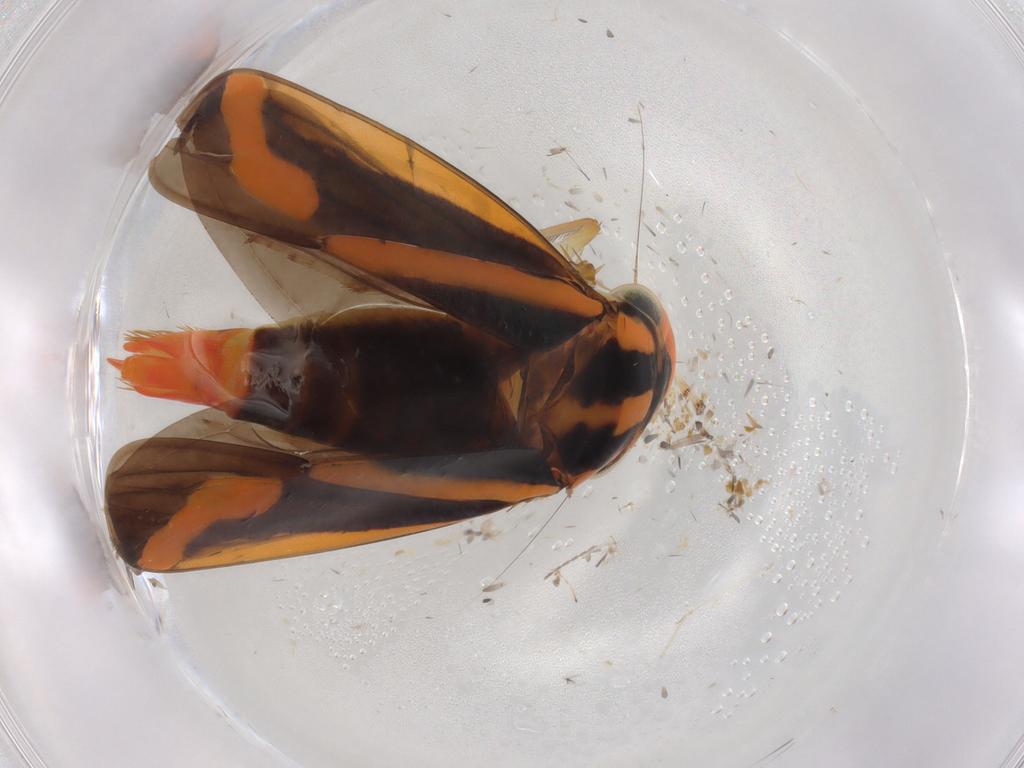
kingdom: Animalia
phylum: Arthropoda
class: Insecta
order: Hemiptera
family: Cicadellidae
